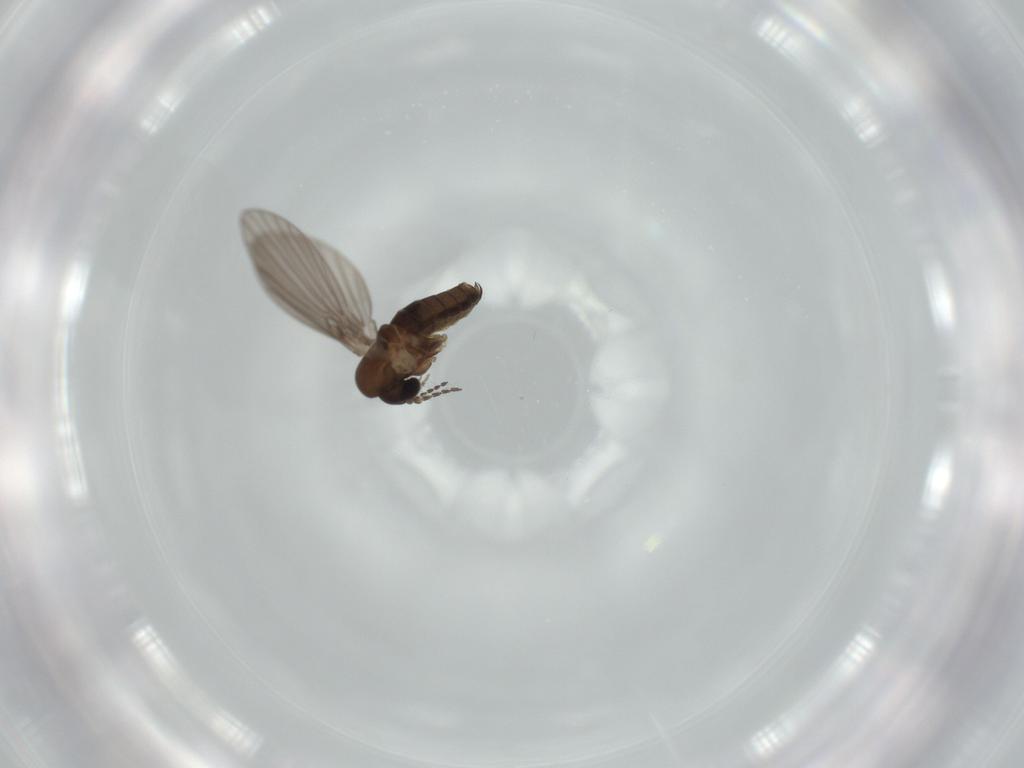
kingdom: Animalia
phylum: Arthropoda
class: Insecta
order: Diptera
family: Psychodidae
